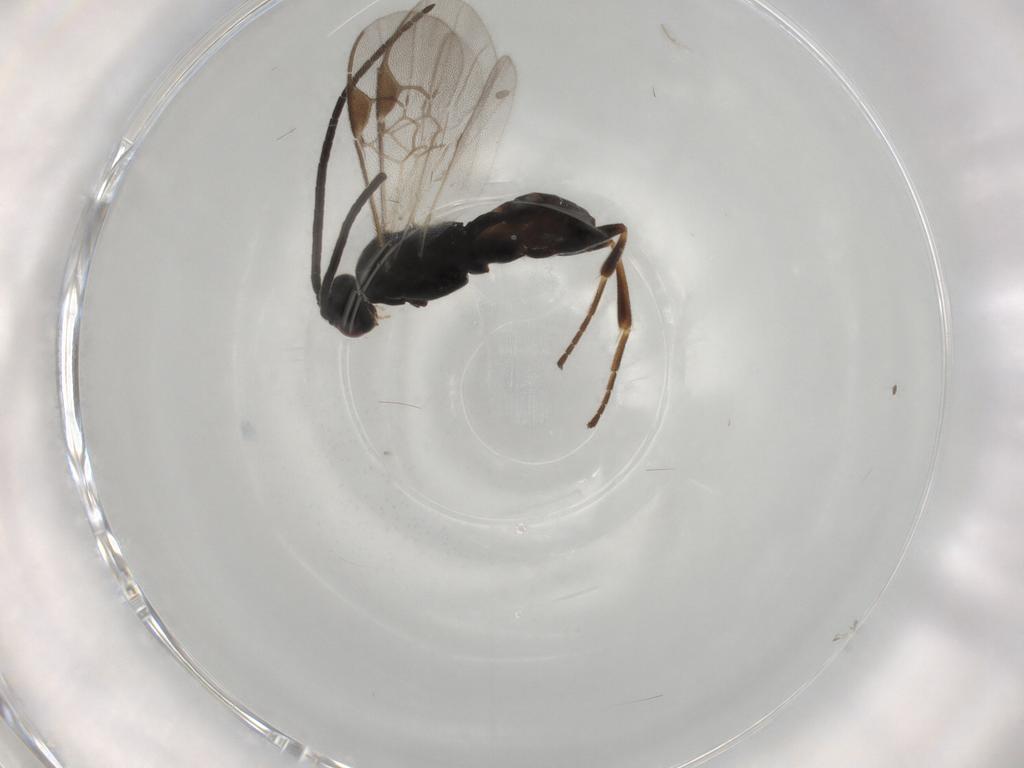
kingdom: Animalia
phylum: Arthropoda
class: Insecta
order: Hymenoptera
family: Braconidae
